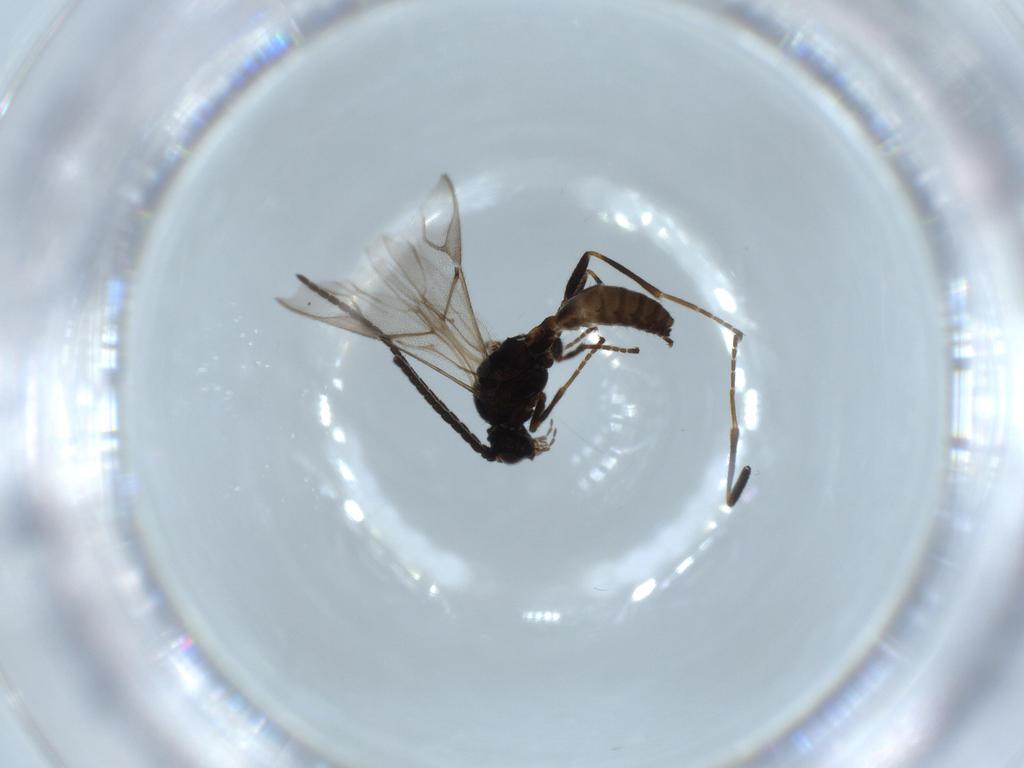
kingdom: Animalia
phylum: Arthropoda
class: Insecta
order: Hymenoptera
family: Braconidae
